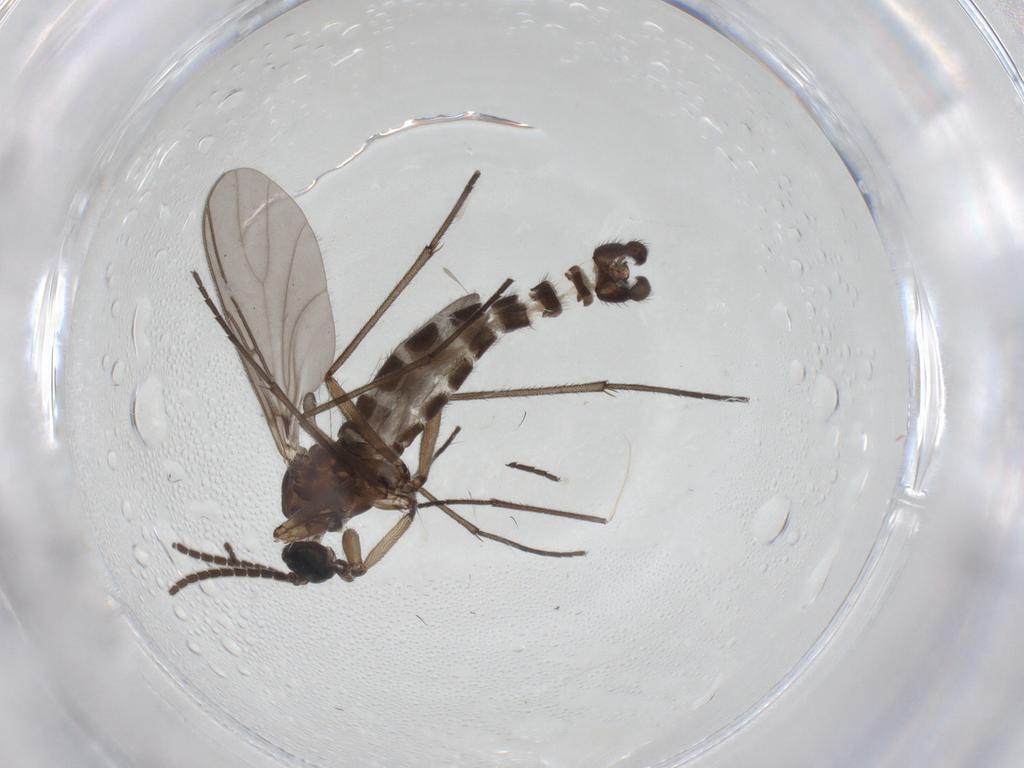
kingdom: Animalia
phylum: Arthropoda
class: Insecta
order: Diptera
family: Sciaridae
